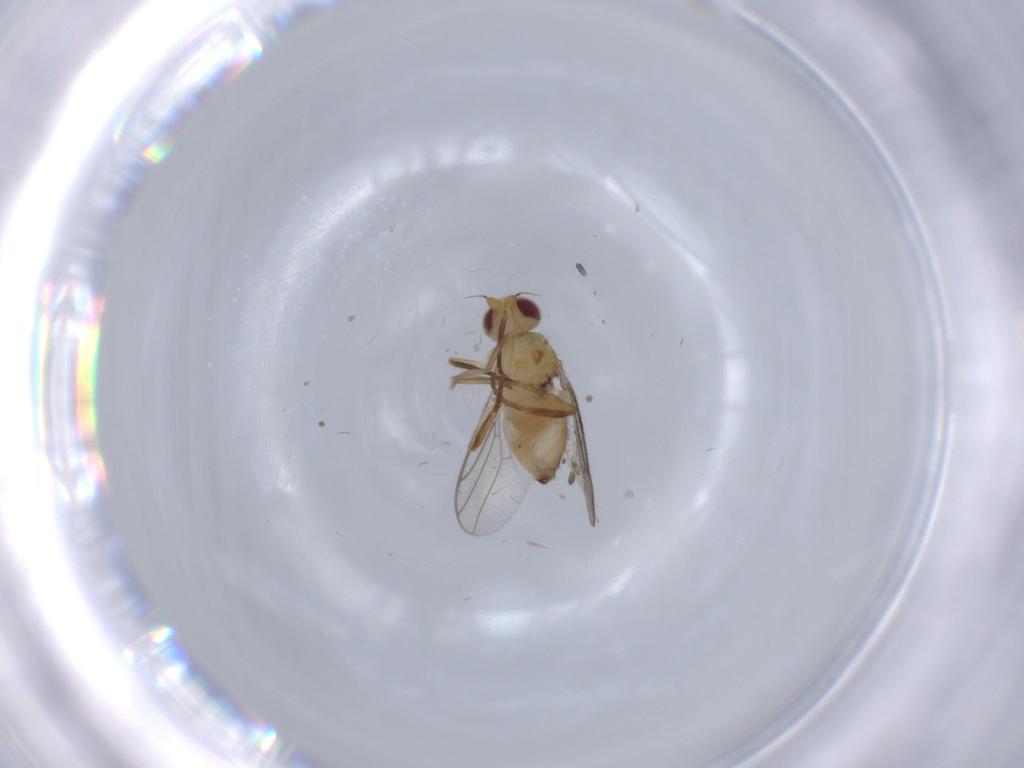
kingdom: Animalia
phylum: Arthropoda
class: Insecta
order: Diptera
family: Chloropidae
